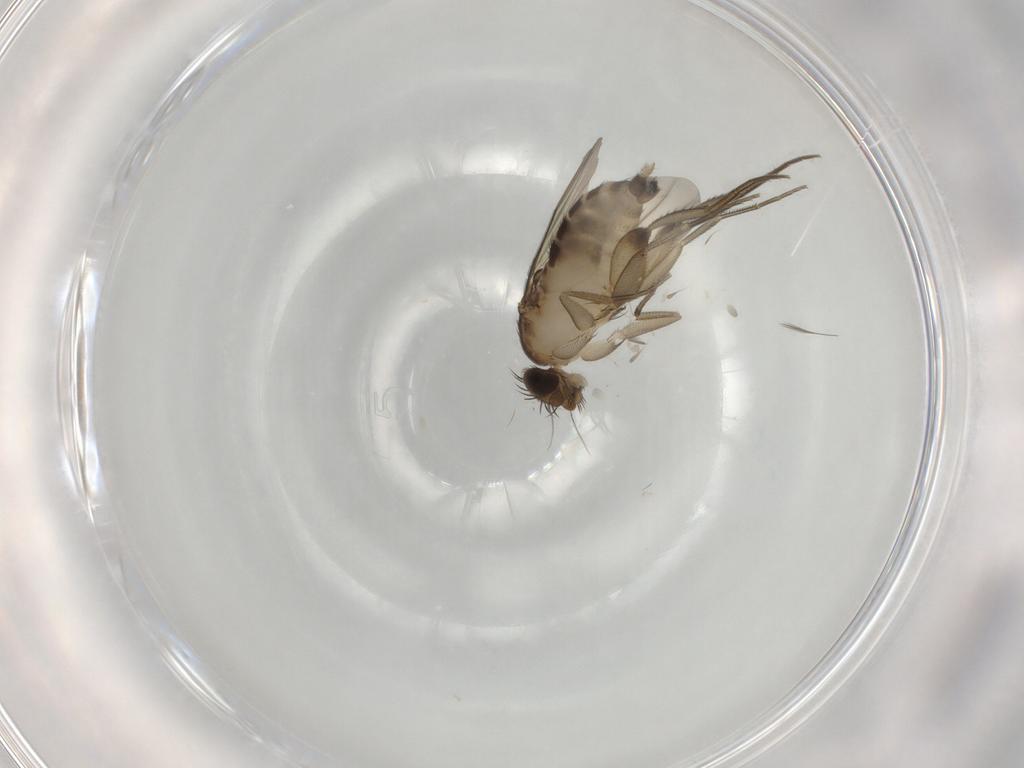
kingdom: Animalia
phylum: Arthropoda
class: Insecta
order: Diptera
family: Phoridae
